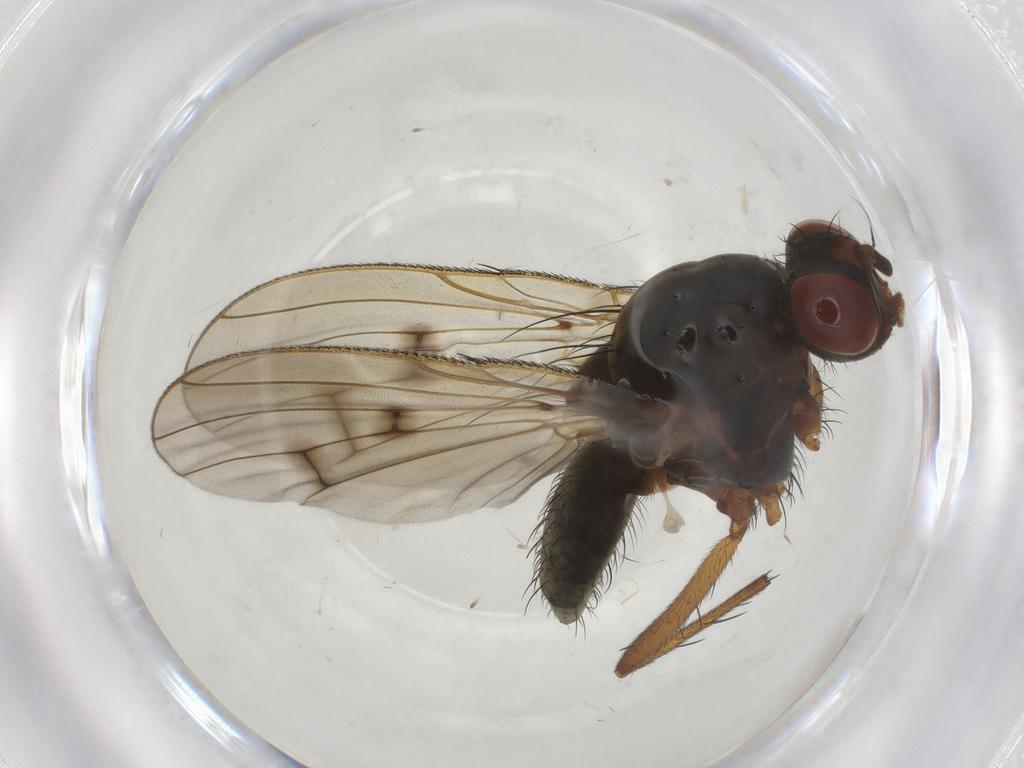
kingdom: Animalia
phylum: Arthropoda
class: Insecta
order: Diptera
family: Anthomyiidae
